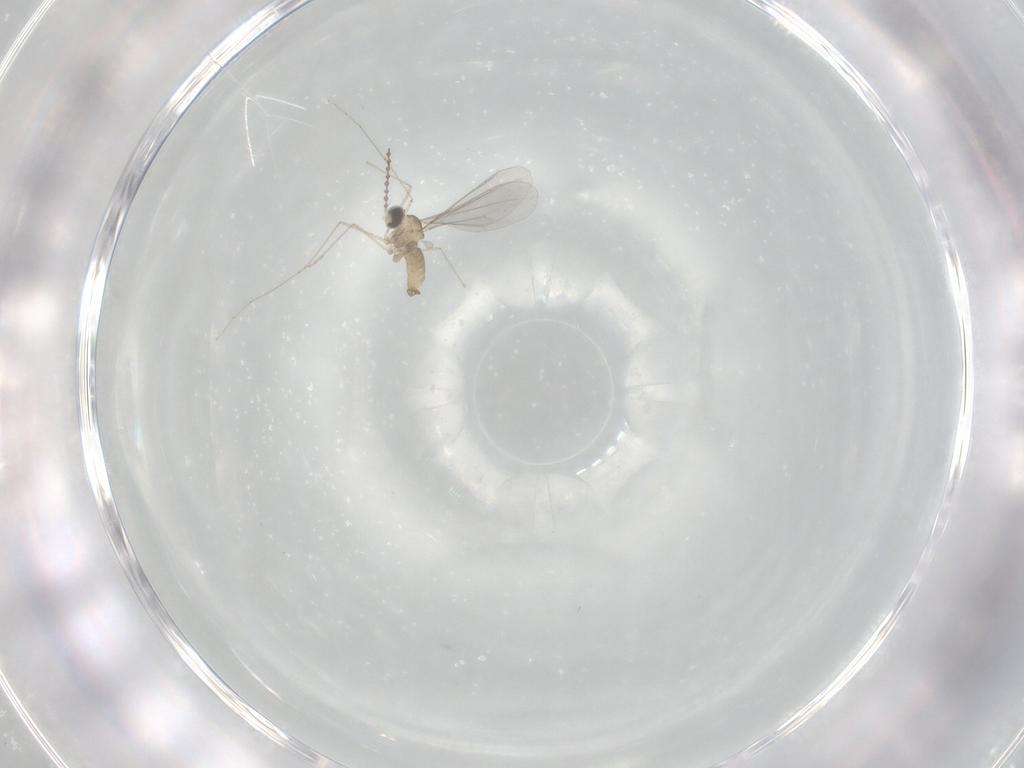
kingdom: Animalia
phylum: Arthropoda
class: Insecta
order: Diptera
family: Cecidomyiidae
